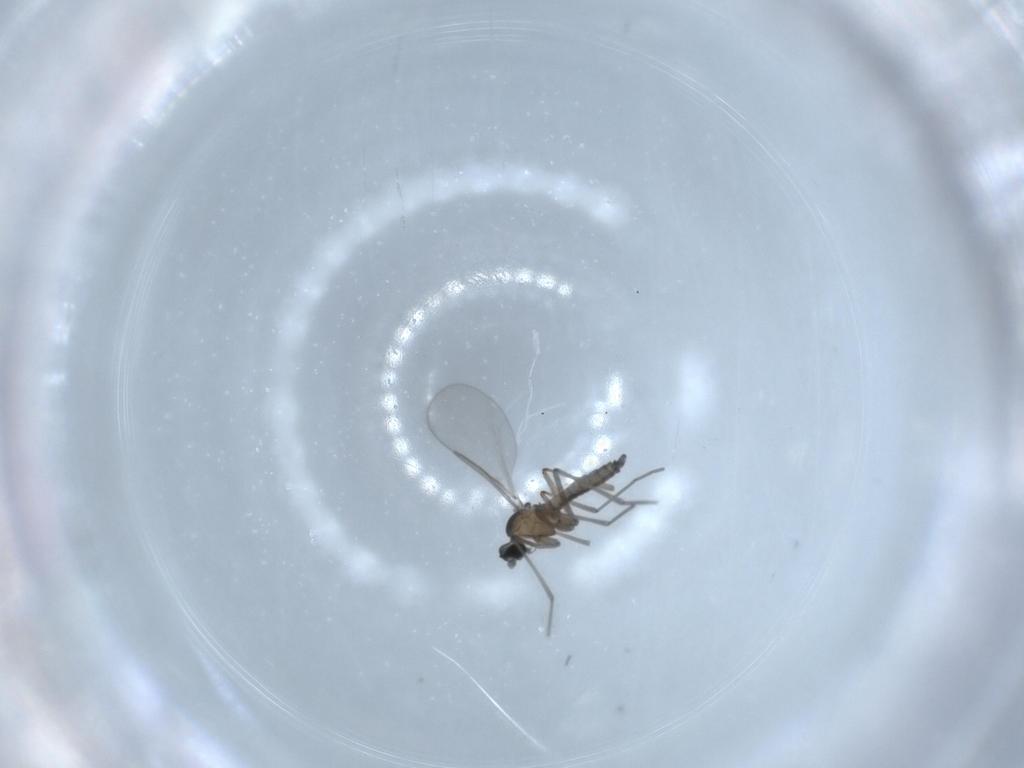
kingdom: Animalia
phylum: Arthropoda
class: Insecta
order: Diptera
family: Cecidomyiidae
